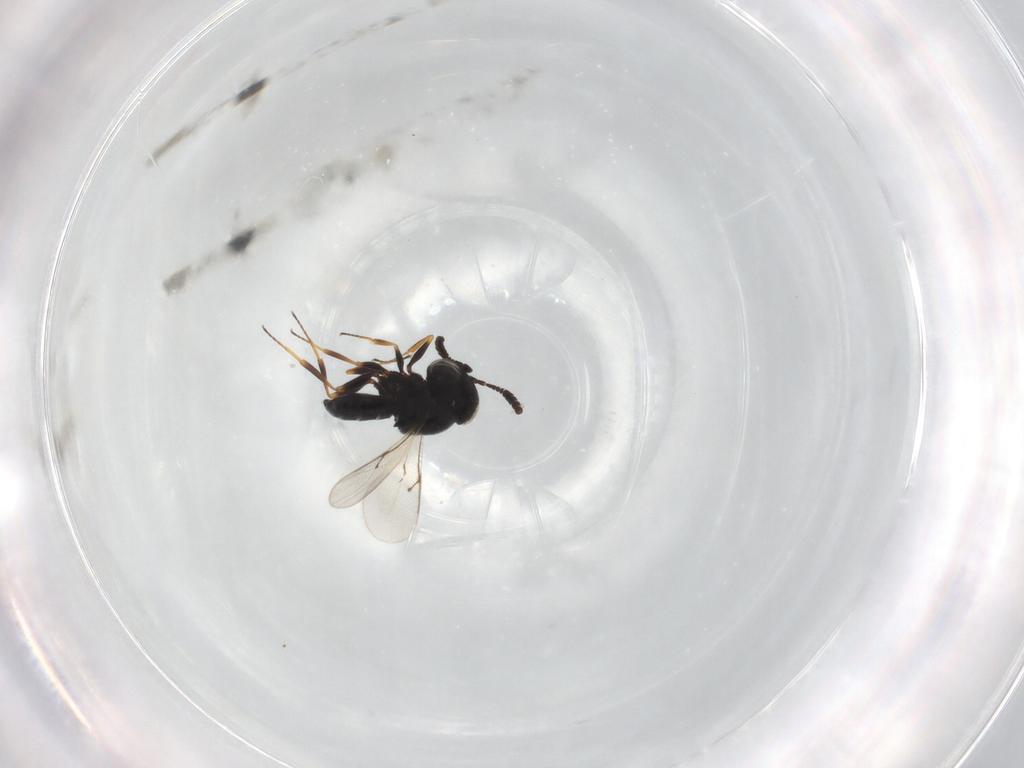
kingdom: Animalia
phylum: Arthropoda
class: Insecta
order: Hymenoptera
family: Scelionidae
